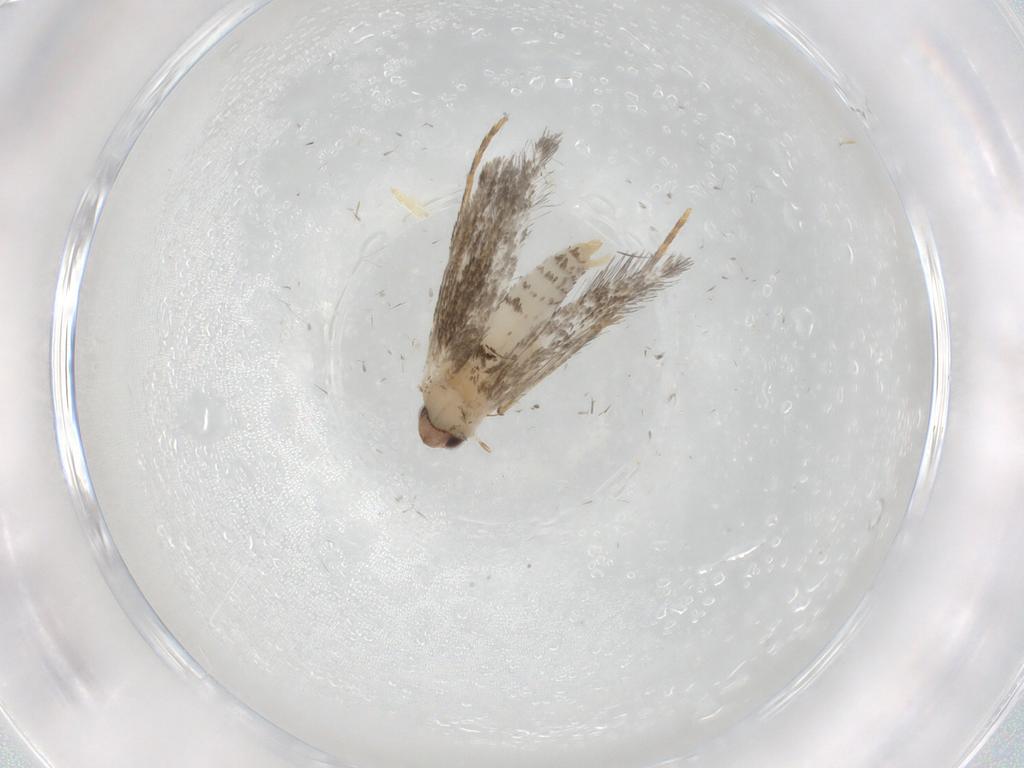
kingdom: Animalia
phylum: Arthropoda
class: Insecta
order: Lepidoptera
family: Tineidae
